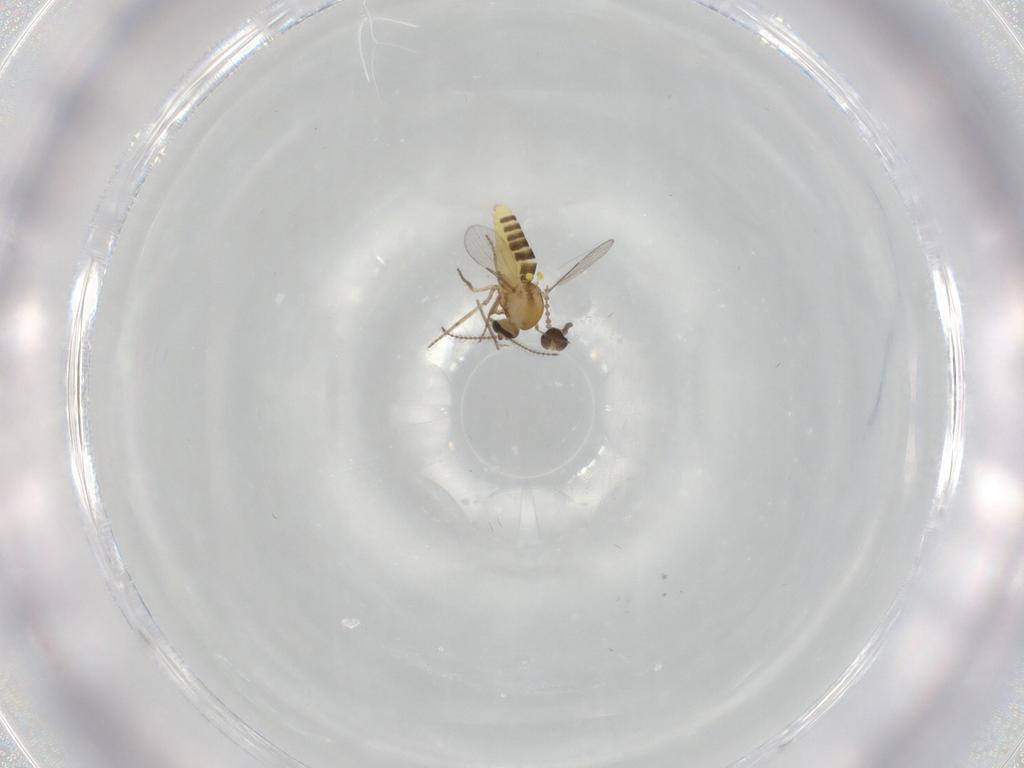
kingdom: Animalia
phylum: Arthropoda
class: Insecta
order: Diptera
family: Cecidomyiidae
